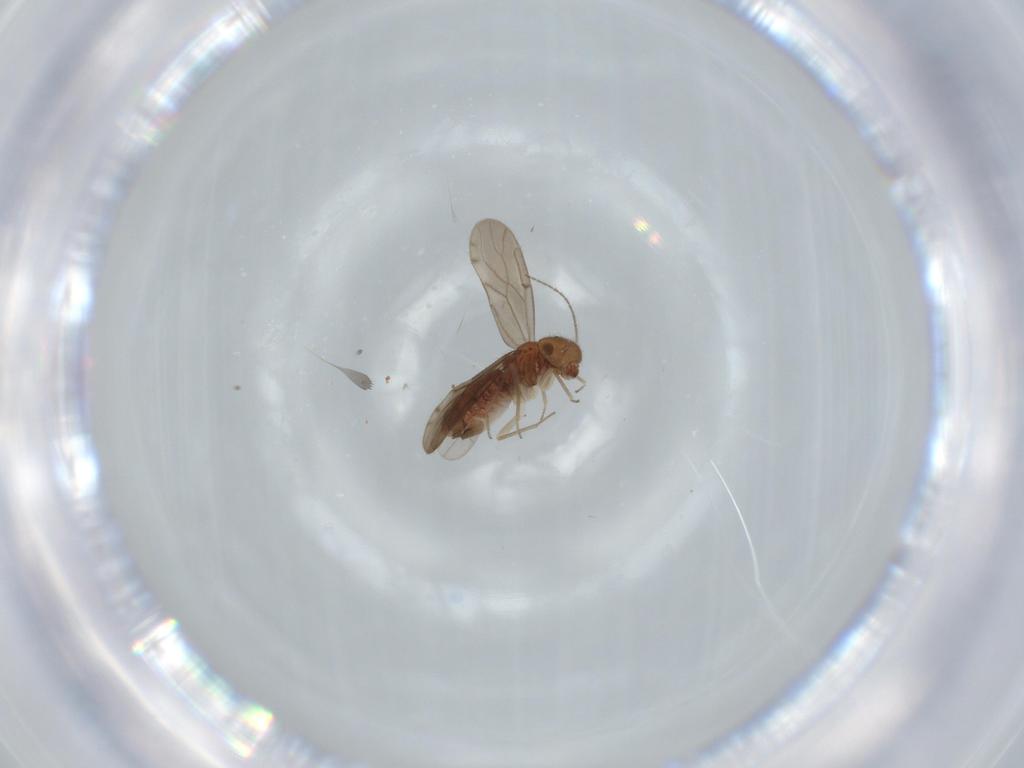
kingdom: Animalia
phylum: Arthropoda
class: Insecta
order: Psocodea
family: Ectopsocidae
